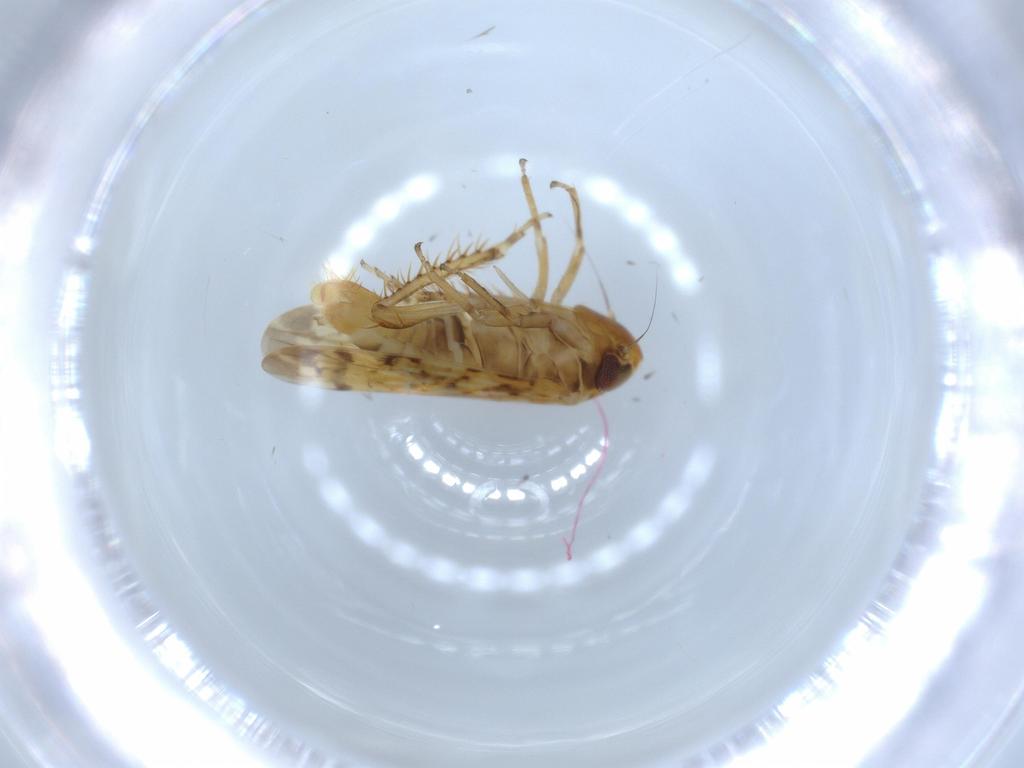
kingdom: Animalia
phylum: Arthropoda
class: Insecta
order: Hemiptera
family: Cicadellidae
